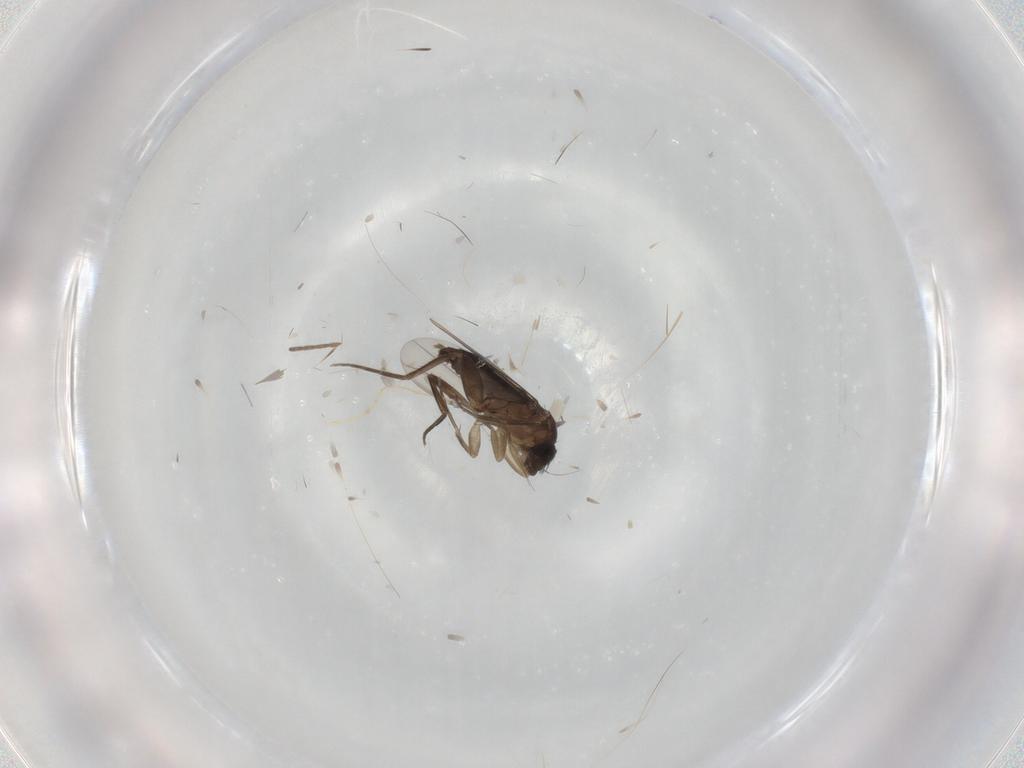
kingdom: Animalia
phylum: Arthropoda
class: Insecta
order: Diptera
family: Phoridae
